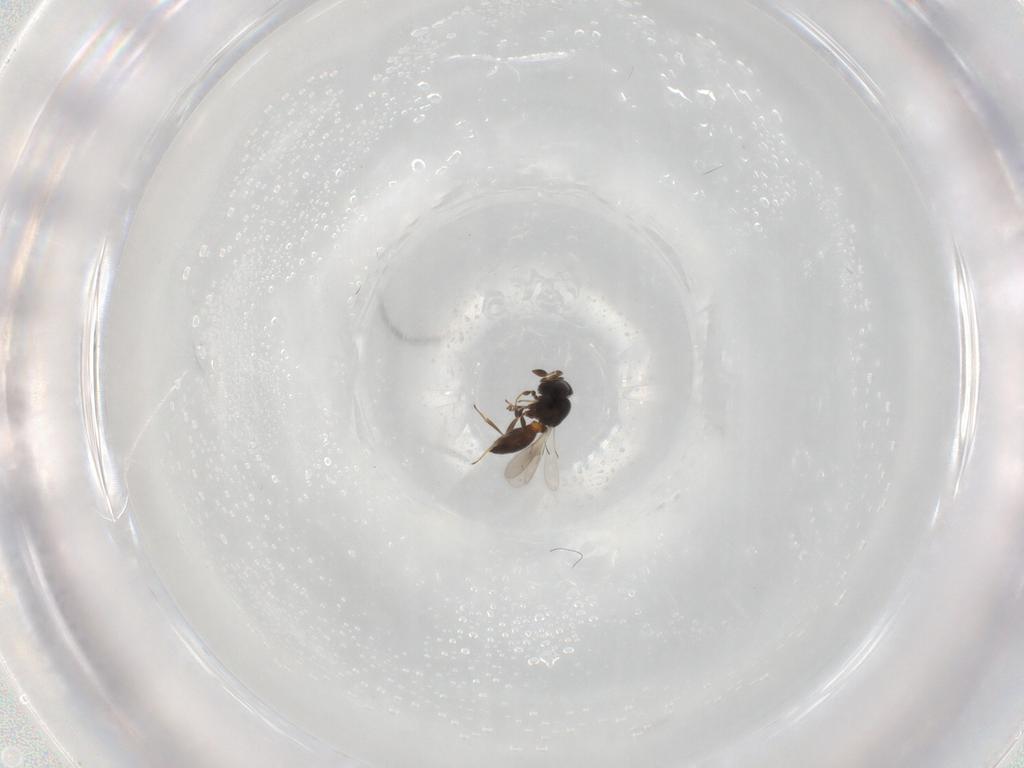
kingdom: Animalia
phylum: Arthropoda
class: Insecta
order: Hymenoptera
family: Scelionidae
